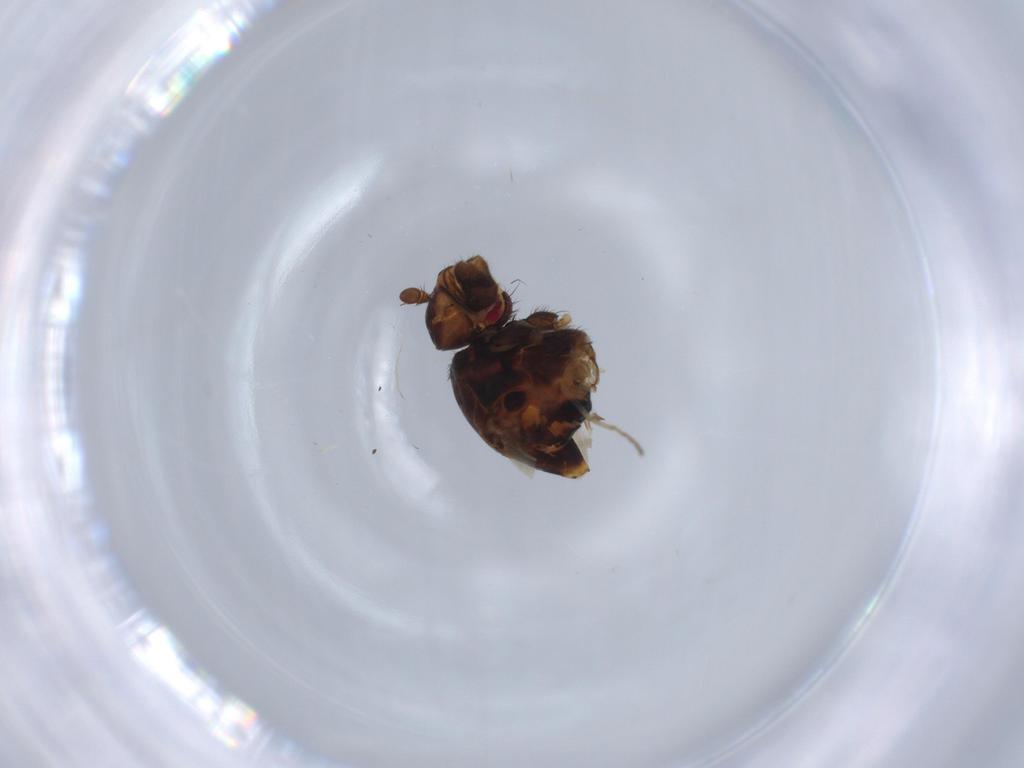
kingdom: Animalia
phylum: Arthropoda
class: Insecta
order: Diptera
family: Sphaeroceridae
